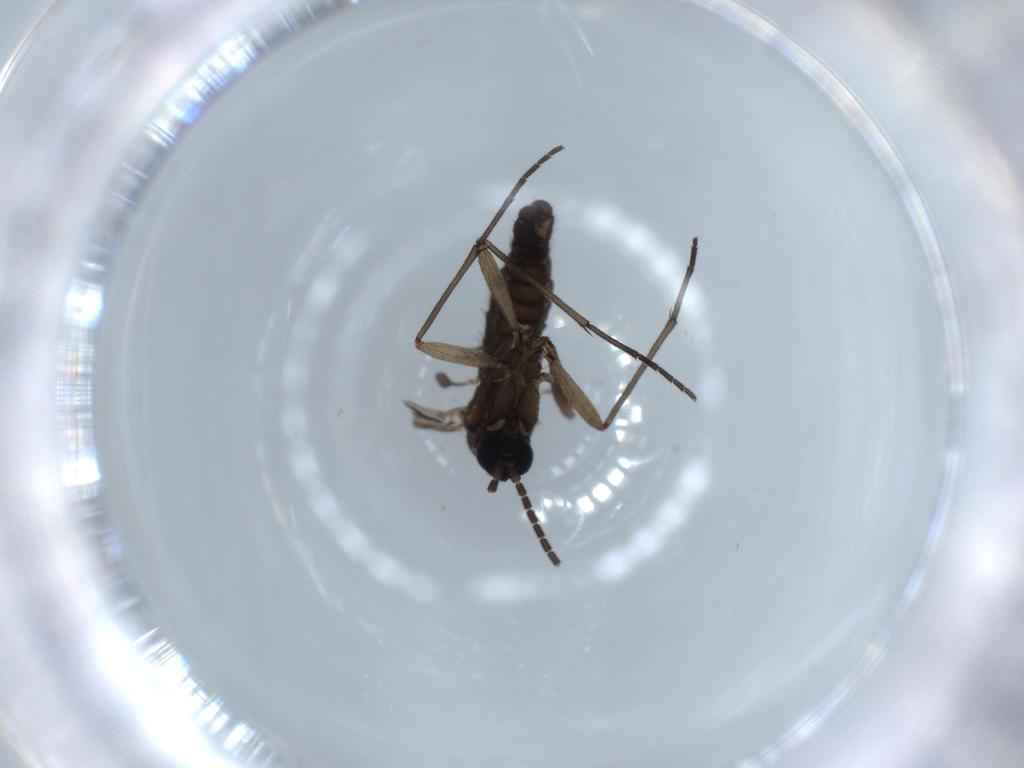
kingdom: Animalia
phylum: Arthropoda
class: Insecta
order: Diptera
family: Sciaridae
